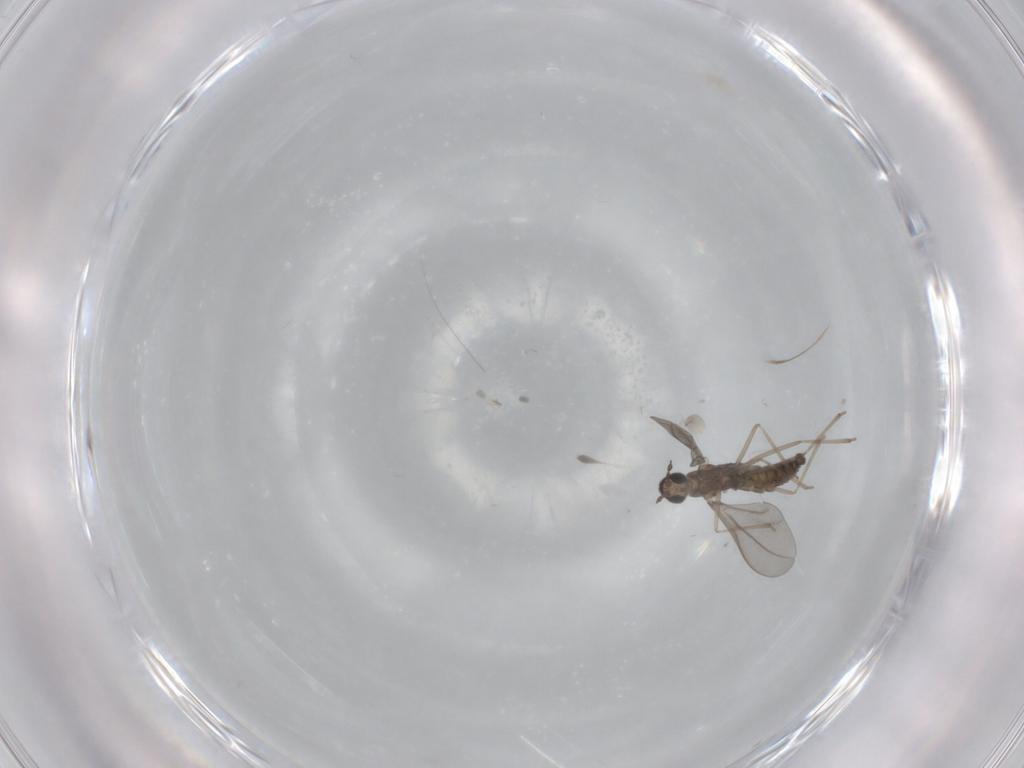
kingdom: Animalia
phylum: Arthropoda
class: Insecta
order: Diptera
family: Cecidomyiidae
